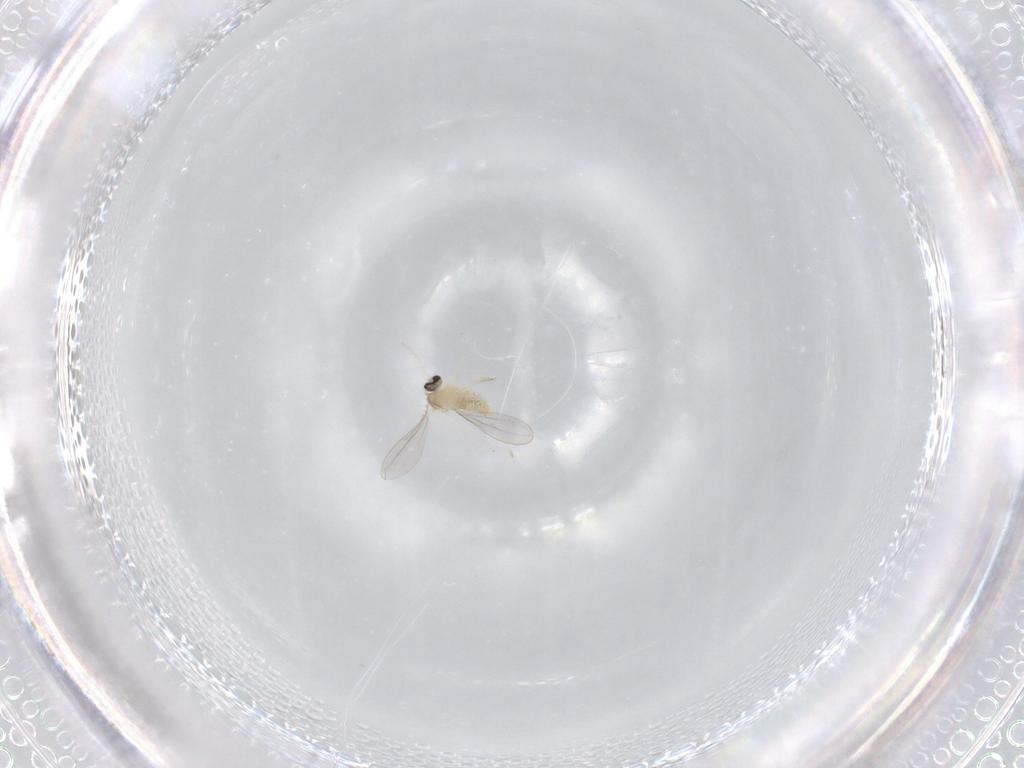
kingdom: Animalia
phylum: Arthropoda
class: Insecta
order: Diptera
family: Cecidomyiidae
